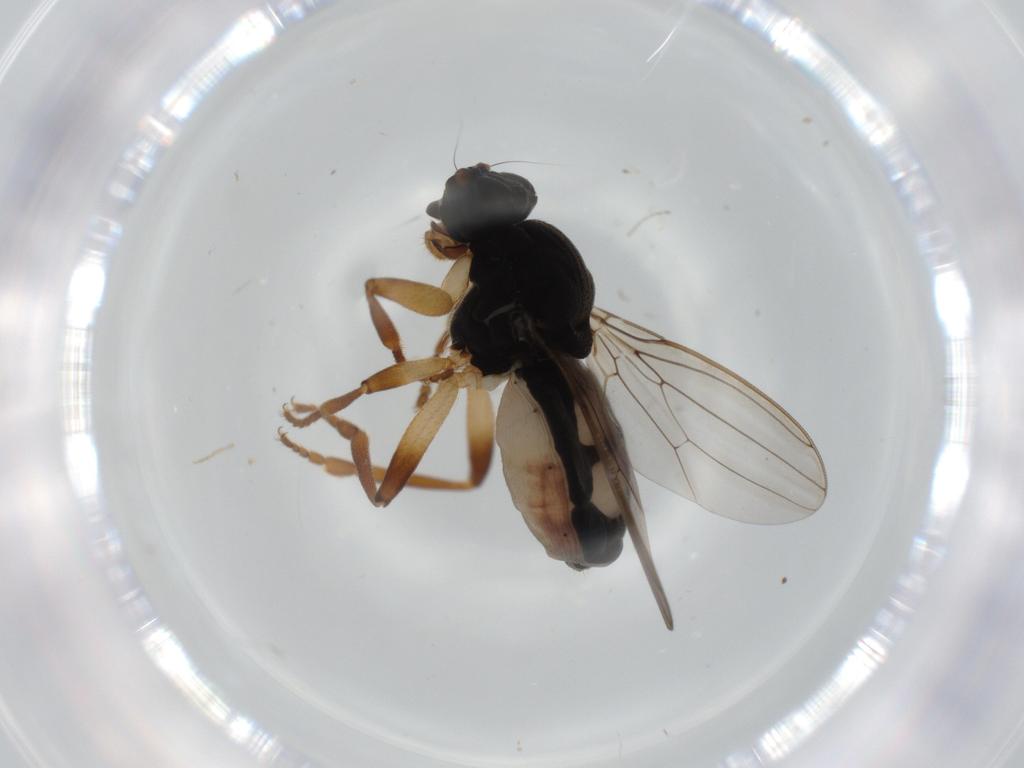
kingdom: Animalia
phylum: Arthropoda
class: Insecta
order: Diptera
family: Sphaeroceridae
